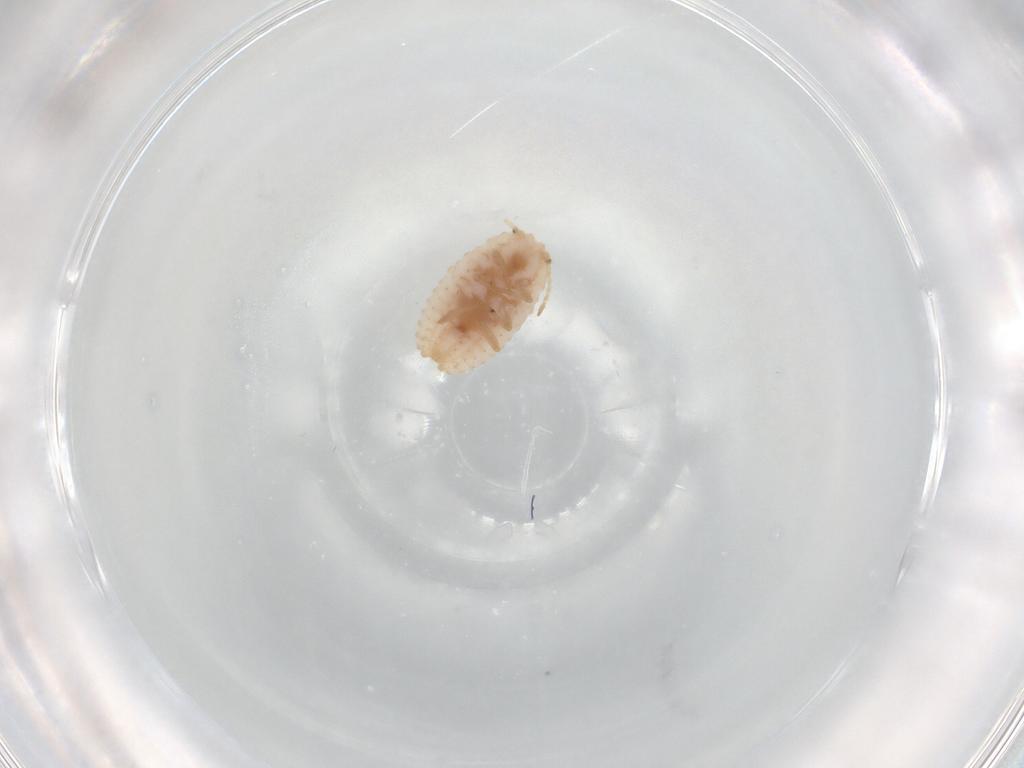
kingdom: Animalia
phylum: Arthropoda
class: Insecta
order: Hemiptera
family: Coccoidea_incertae_sedis
